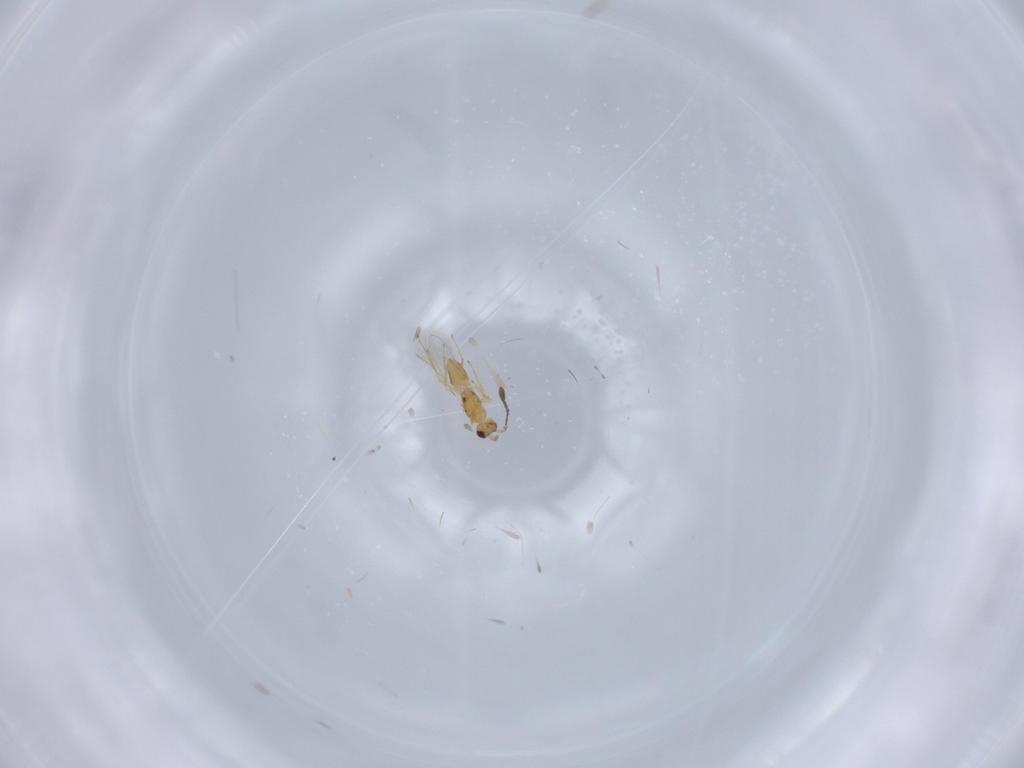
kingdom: Animalia
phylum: Arthropoda
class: Insecta
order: Hymenoptera
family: Mymaridae
